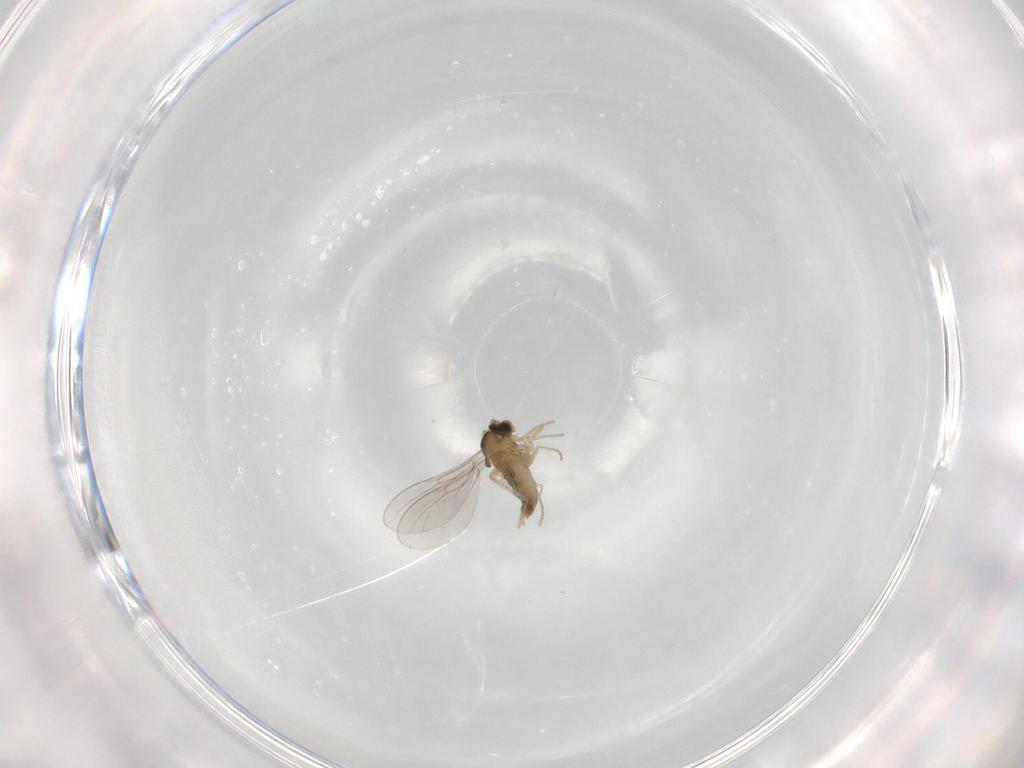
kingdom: Animalia
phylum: Arthropoda
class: Insecta
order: Diptera
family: Cecidomyiidae
